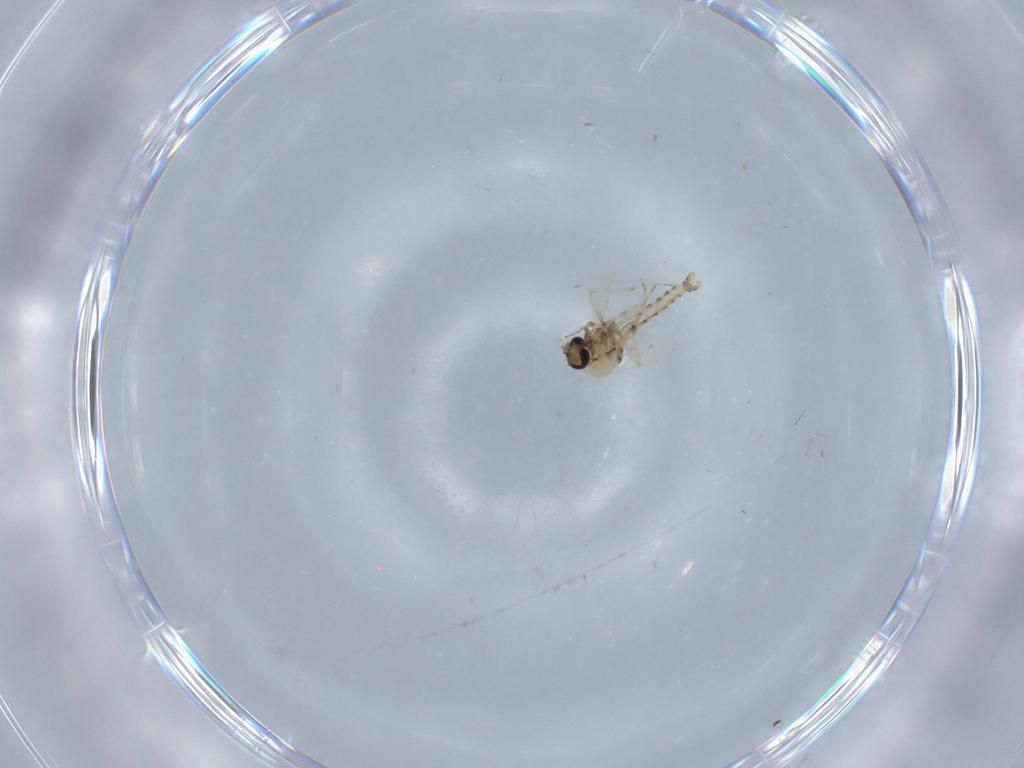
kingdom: Animalia
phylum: Arthropoda
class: Insecta
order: Diptera
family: Ceratopogonidae
